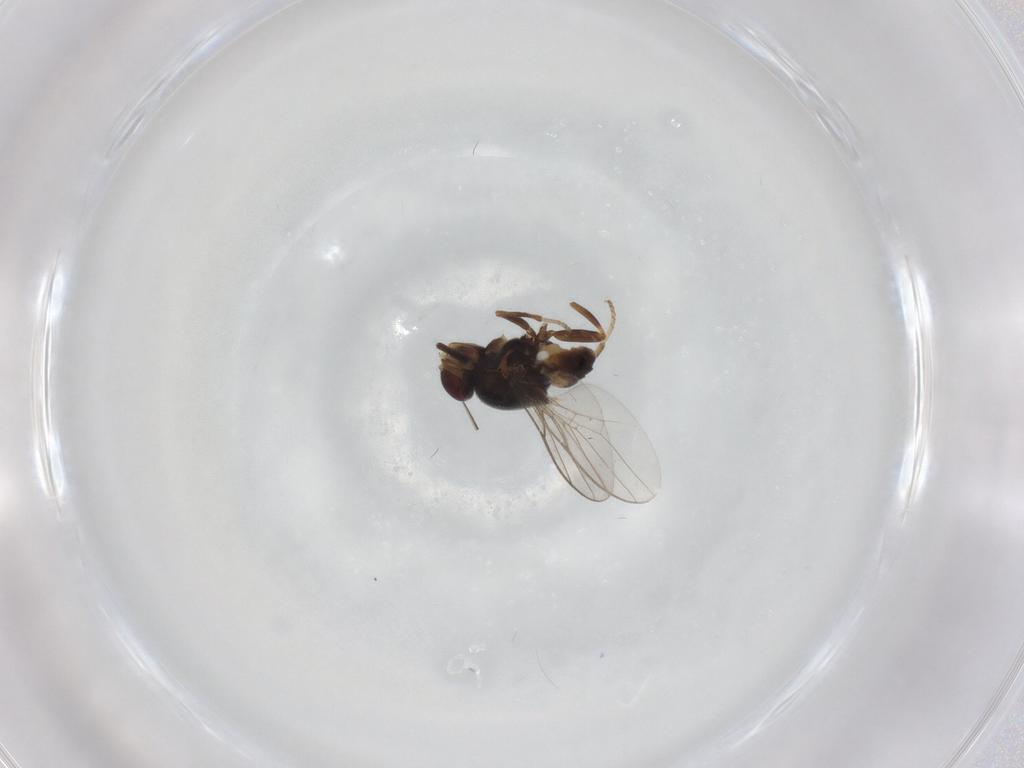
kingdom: Animalia
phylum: Arthropoda
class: Insecta
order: Diptera
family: Chloropidae
